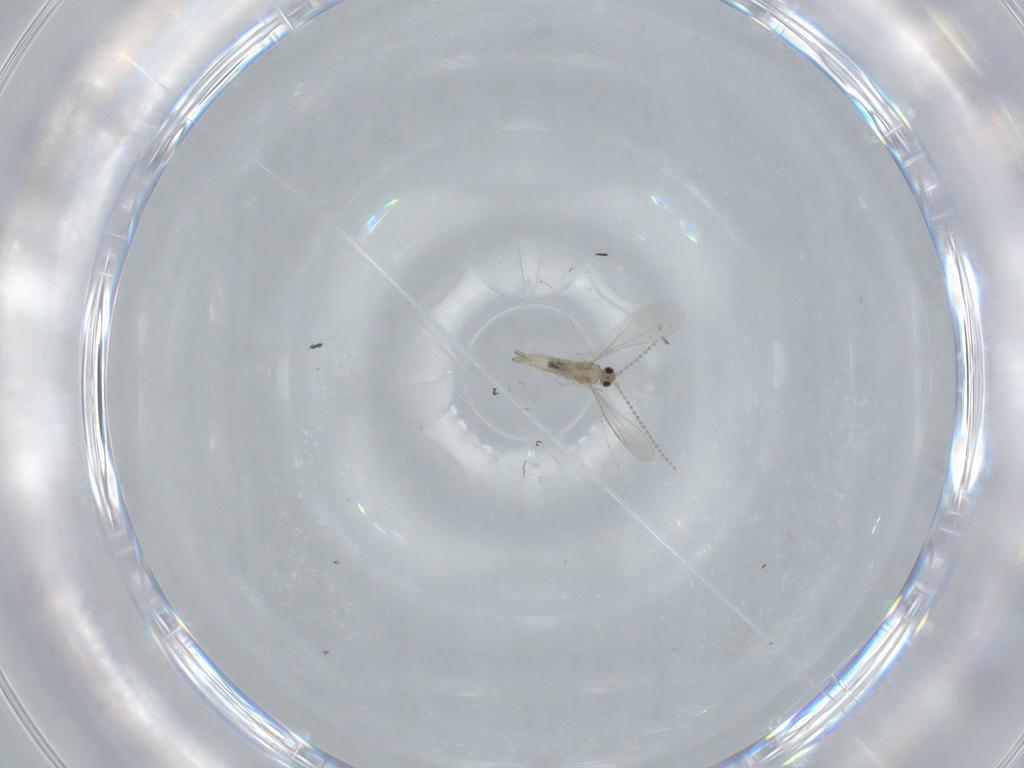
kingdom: Animalia
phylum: Arthropoda
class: Insecta
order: Diptera
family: Cecidomyiidae
